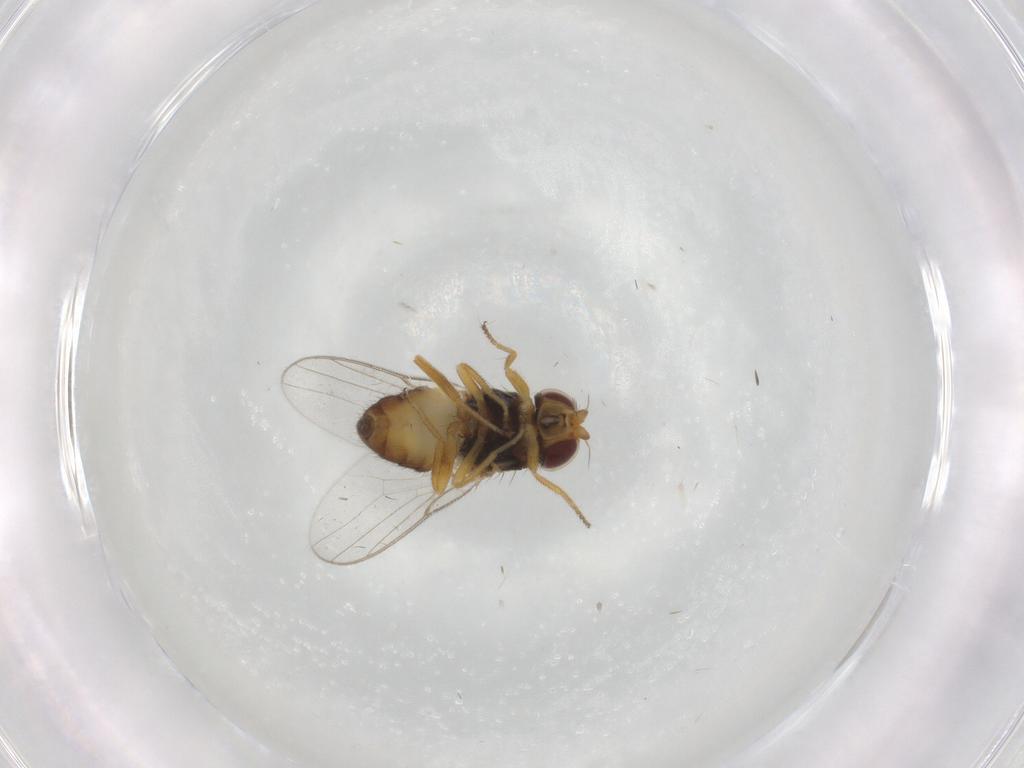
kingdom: Animalia
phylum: Arthropoda
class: Insecta
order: Diptera
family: Chloropidae
